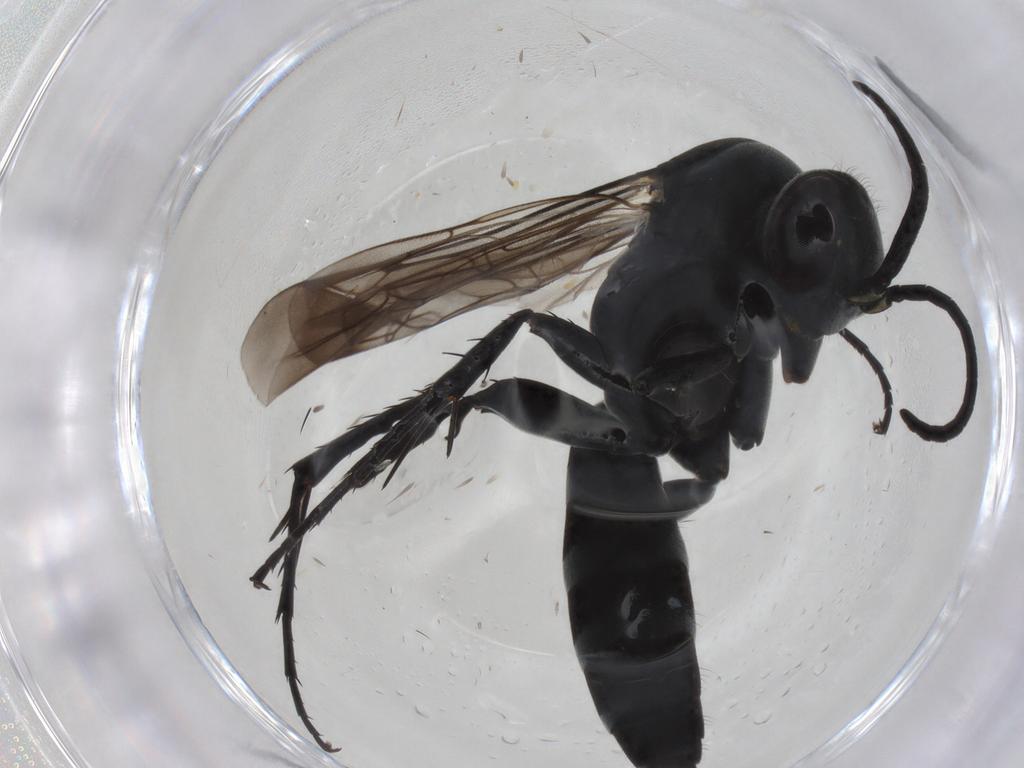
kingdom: Animalia
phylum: Arthropoda
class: Insecta
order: Hymenoptera
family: Pompilidae
